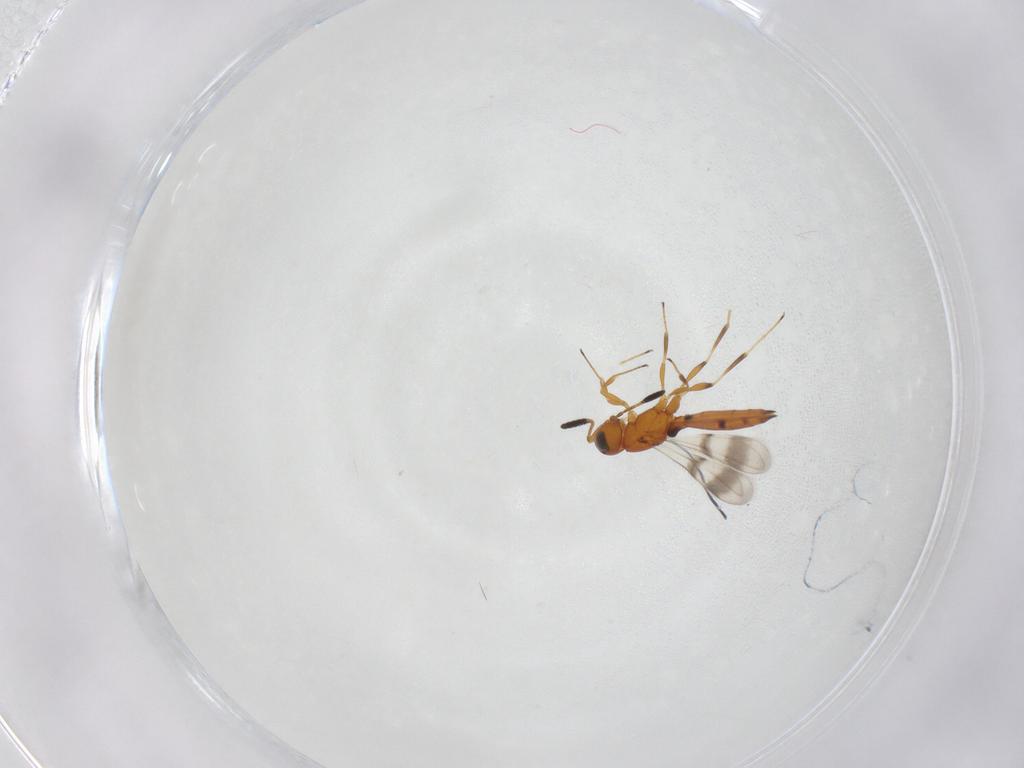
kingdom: Animalia
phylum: Arthropoda
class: Insecta
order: Hymenoptera
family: Scelionidae
